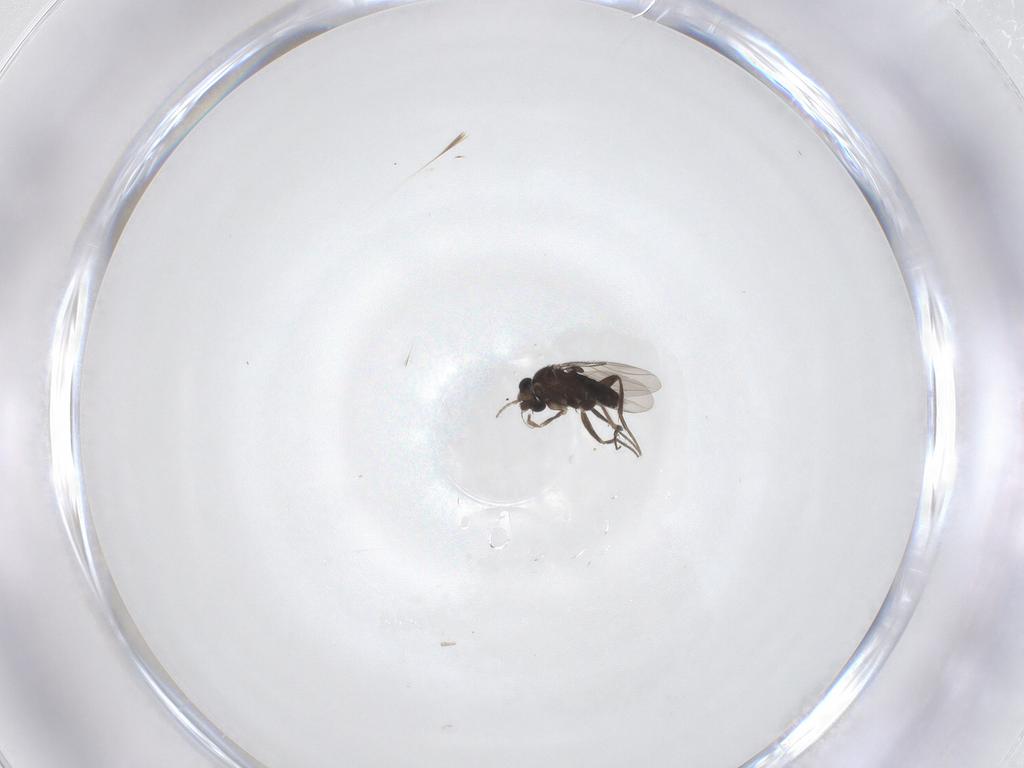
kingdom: Animalia
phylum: Arthropoda
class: Insecta
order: Diptera
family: Phoridae
